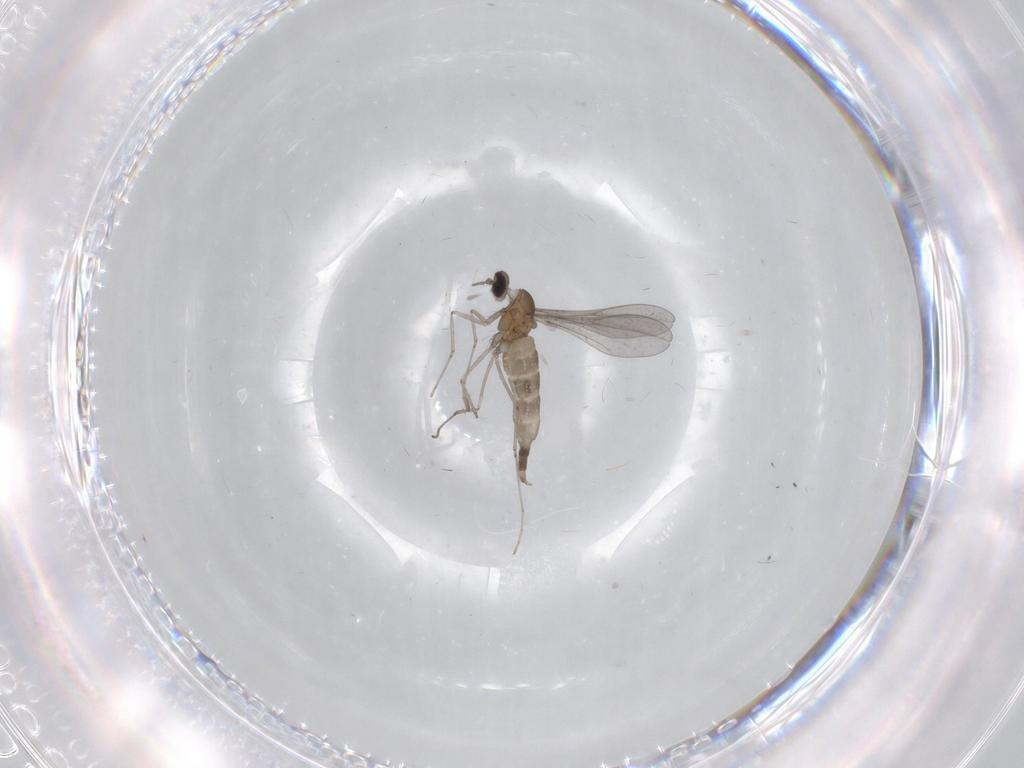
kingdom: Animalia
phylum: Arthropoda
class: Insecta
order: Diptera
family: Cecidomyiidae
